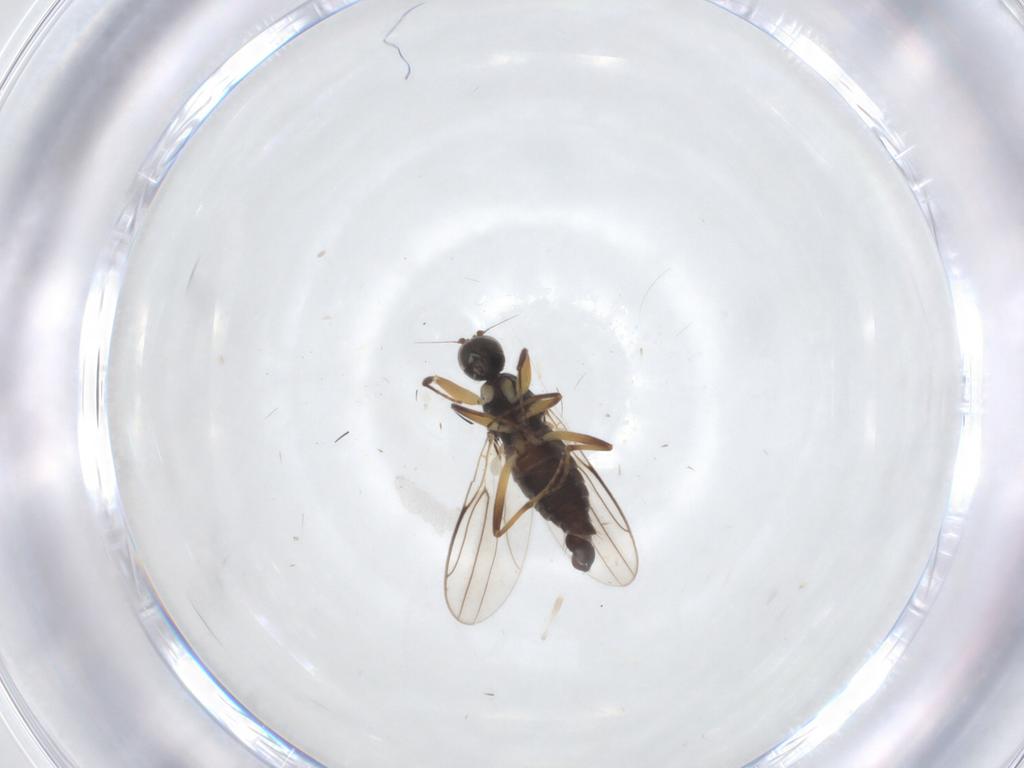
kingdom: Animalia
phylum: Arthropoda
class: Insecta
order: Diptera
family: Hybotidae
